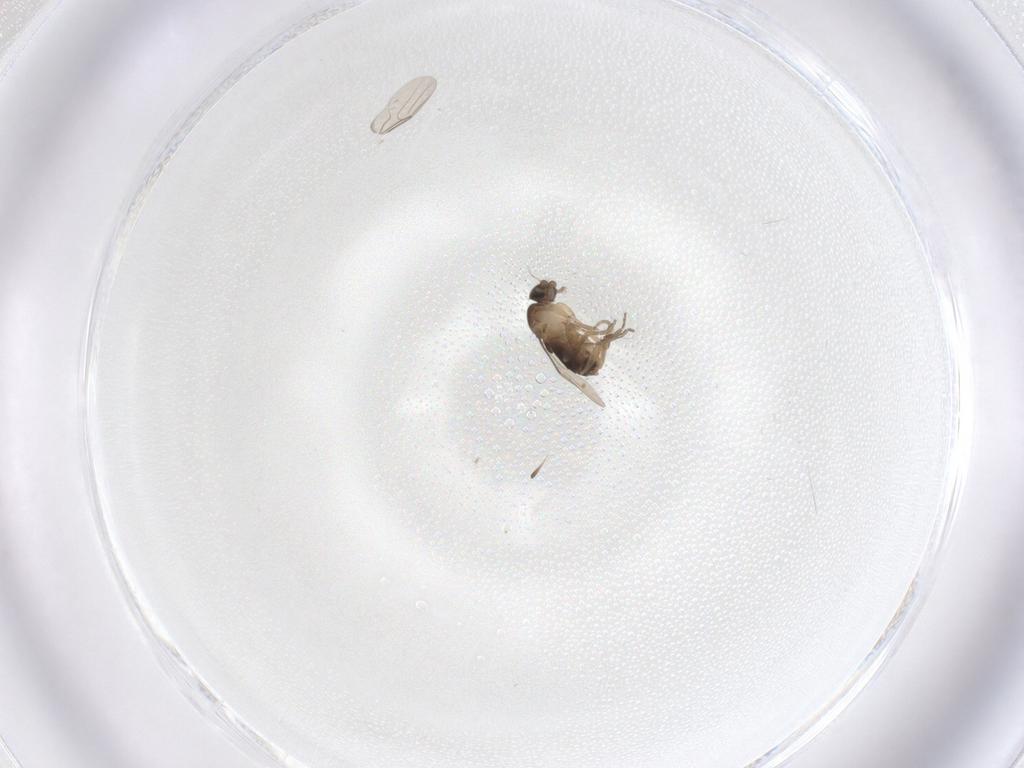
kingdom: Animalia
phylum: Arthropoda
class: Insecta
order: Diptera
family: Phoridae
